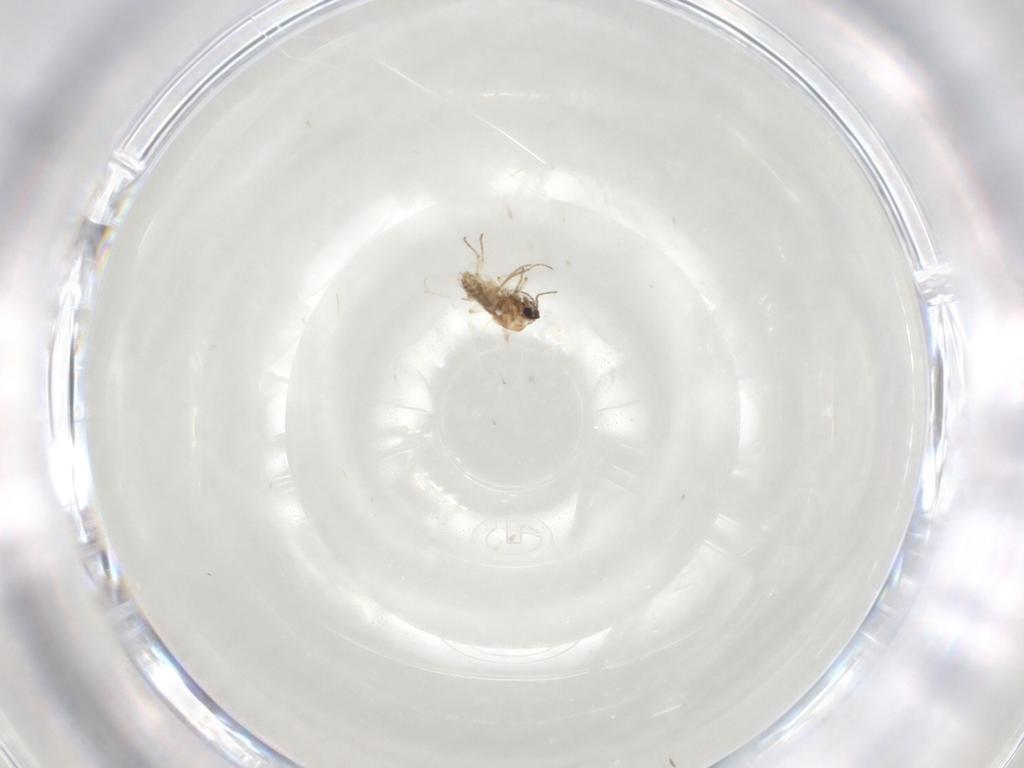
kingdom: Animalia
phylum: Arthropoda
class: Insecta
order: Diptera
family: Ceratopogonidae
